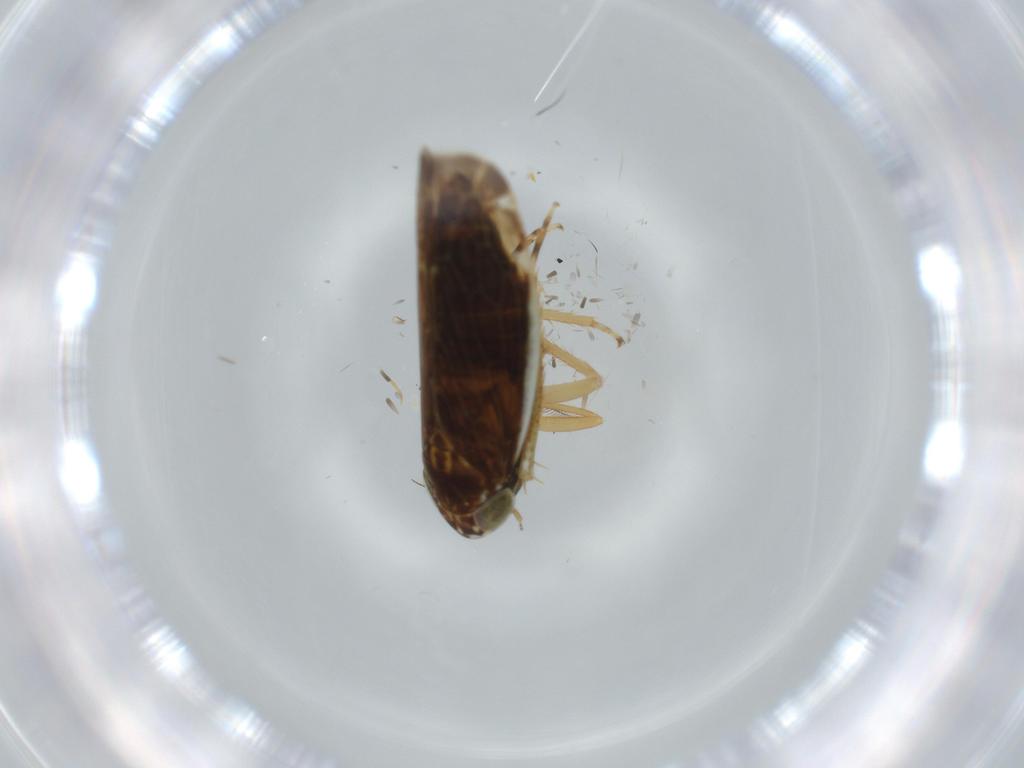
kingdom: Animalia
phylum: Arthropoda
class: Insecta
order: Hemiptera
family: Cicadellidae
